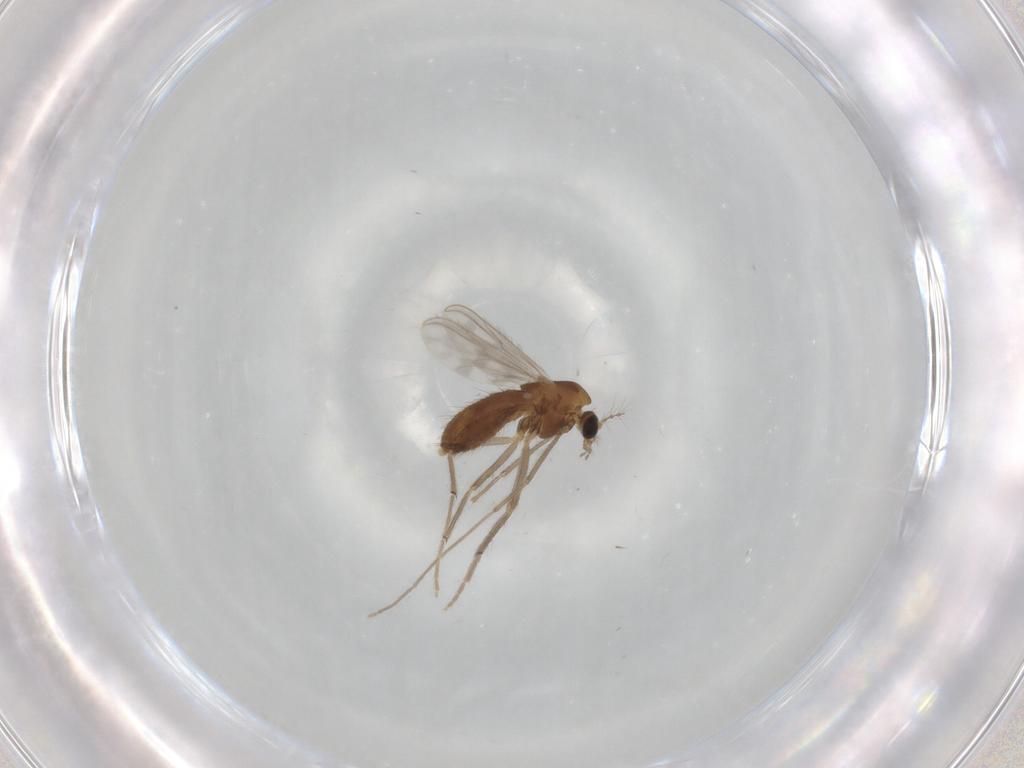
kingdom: Animalia
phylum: Arthropoda
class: Insecta
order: Diptera
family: Chironomidae
